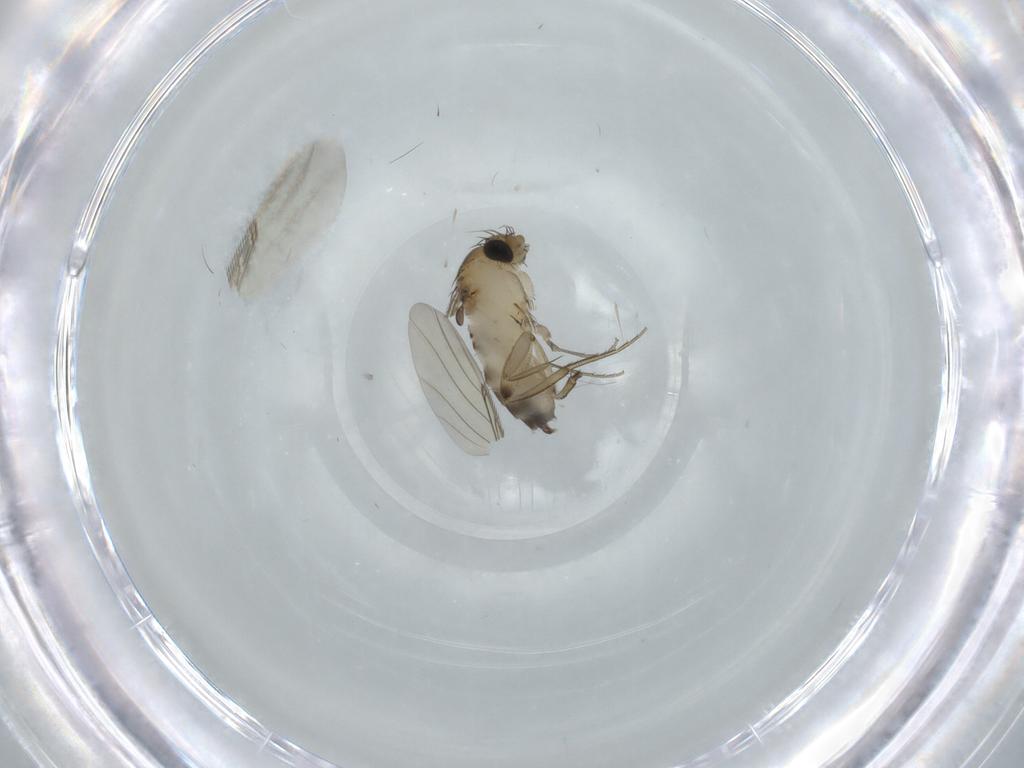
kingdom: Animalia
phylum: Arthropoda
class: Insecta
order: Diptera
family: Phoridae
